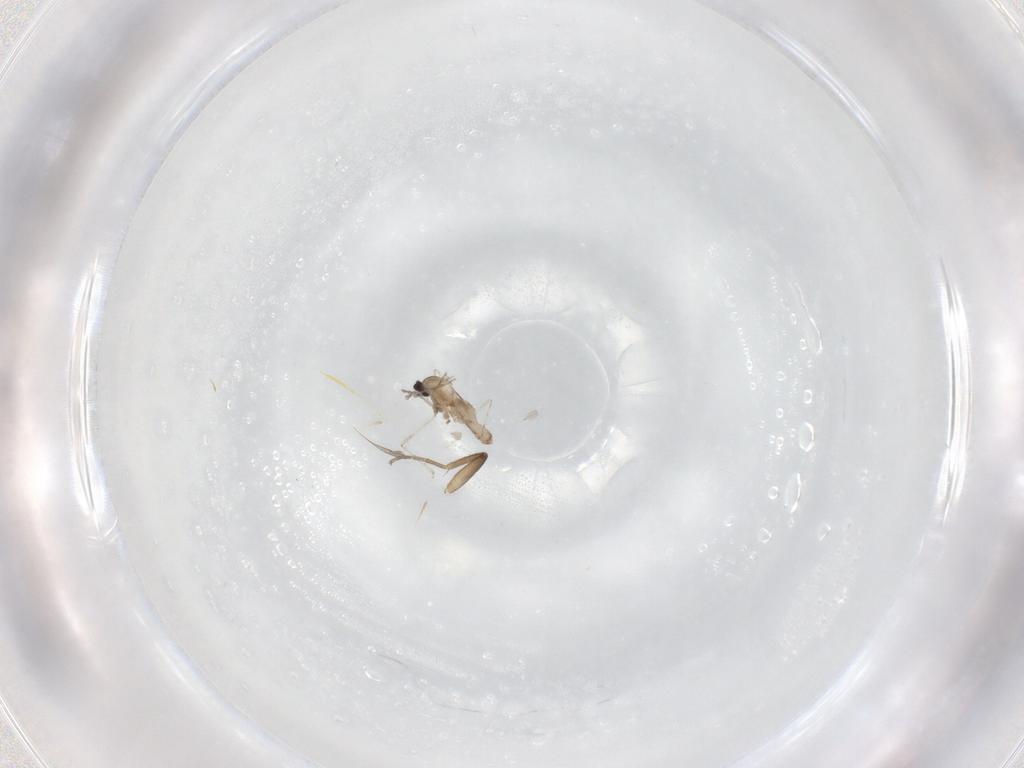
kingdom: Animalia
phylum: Arthropoda
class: Insecta
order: Diptera
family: Cecidomyiidae
